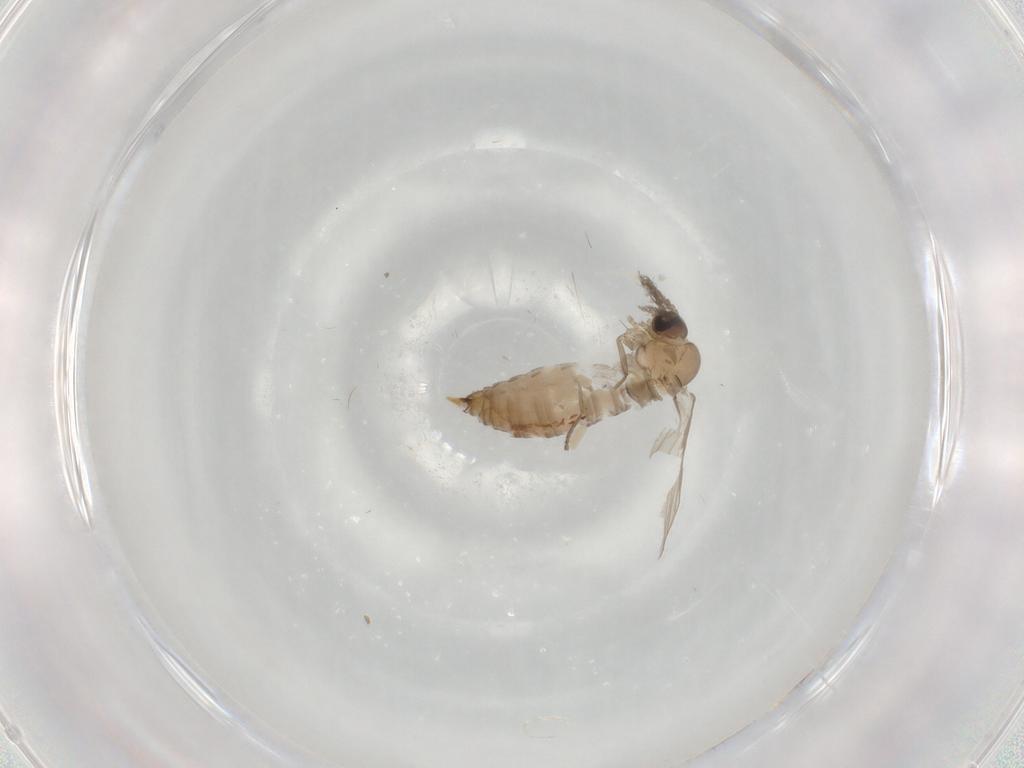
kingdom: Animalia
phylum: Arthropoda
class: Insecta
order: Diptera
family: Psychodidae
